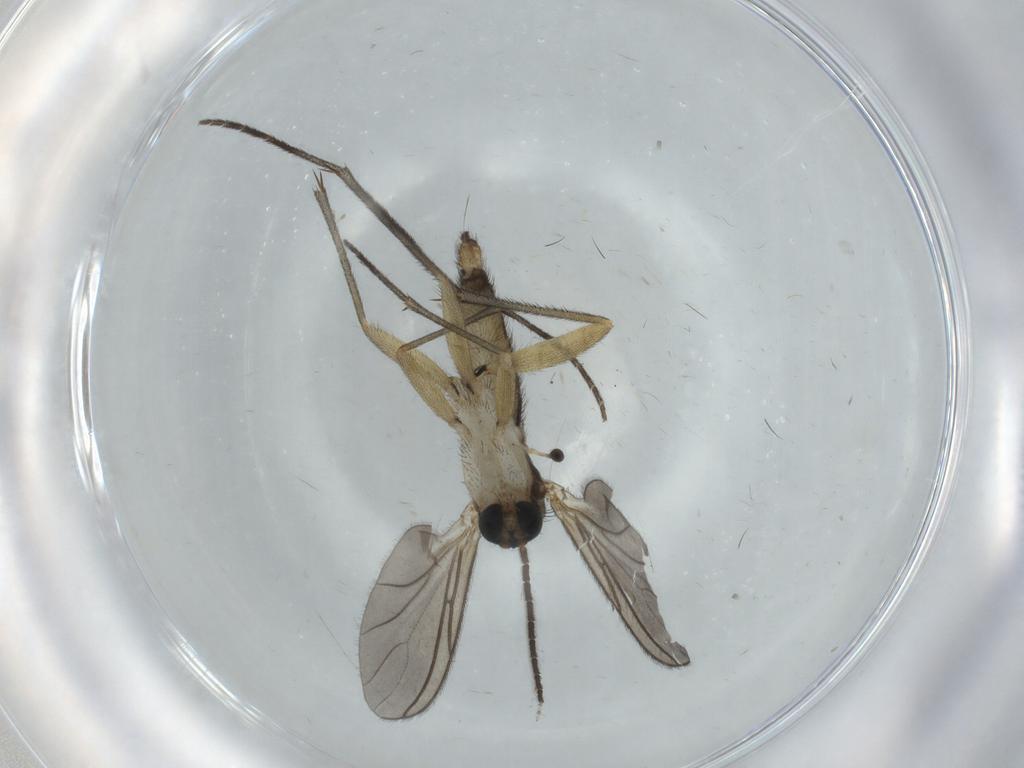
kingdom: Animalia
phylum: Arthropoda
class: Insecta
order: Diptera
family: Sciaridae
